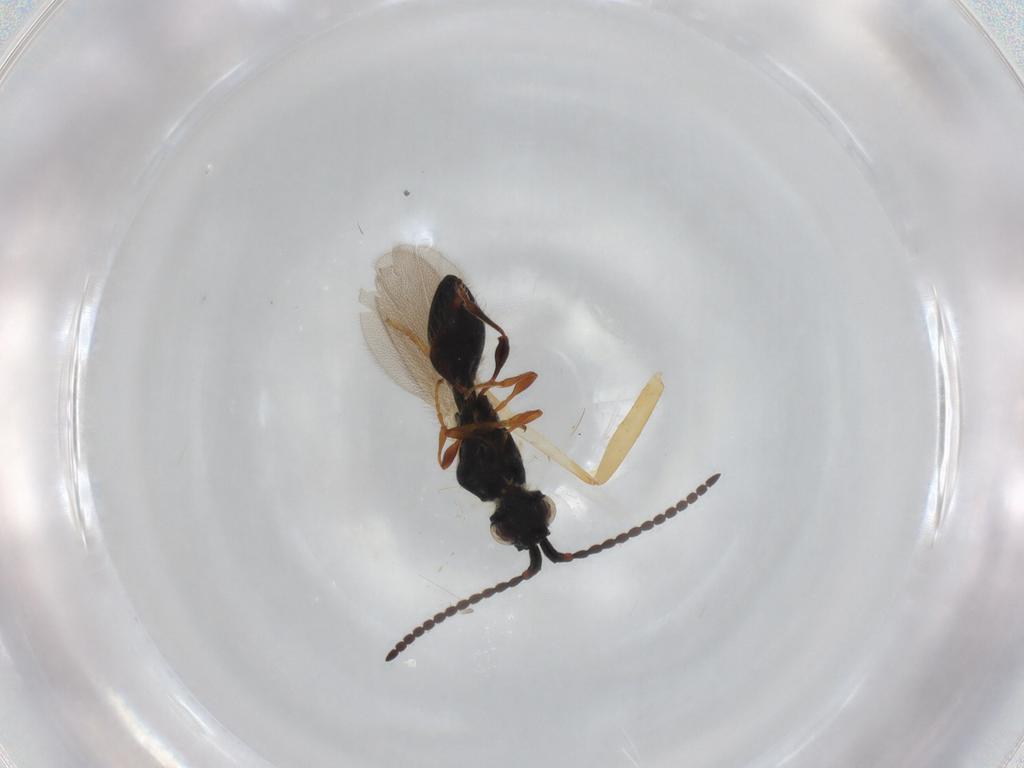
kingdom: Animalia
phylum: Arthropoda
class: Insecta
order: Hymenoptera
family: Diapriidae
